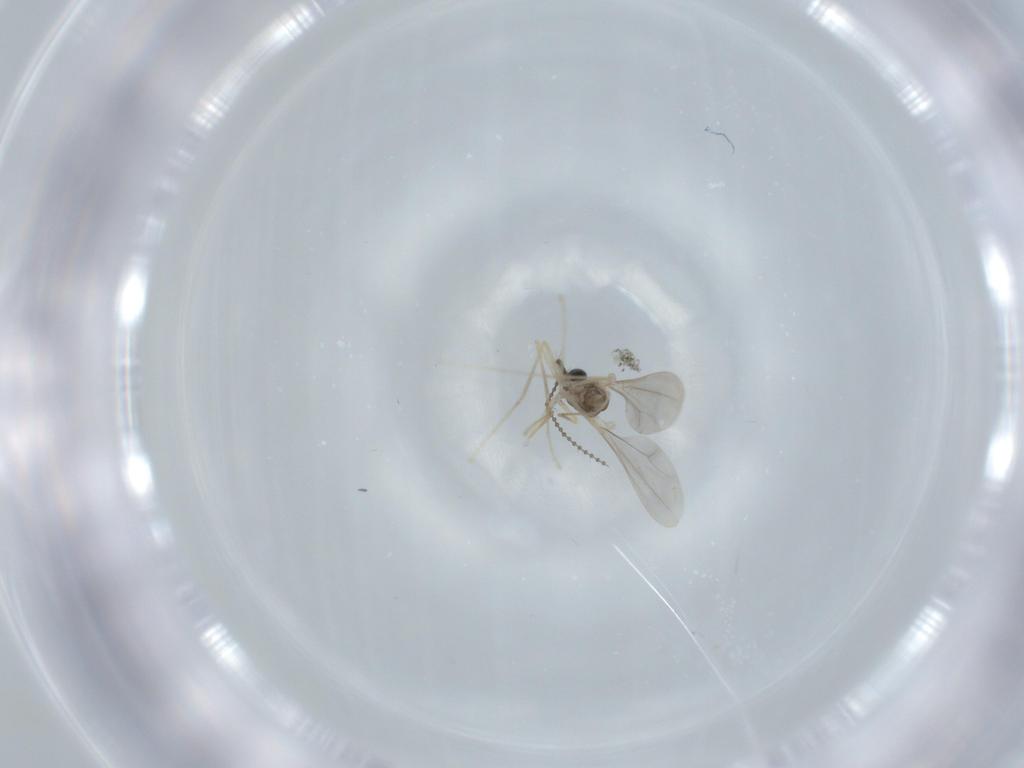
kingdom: Animalia
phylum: Arthropoda
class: Insecta
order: Diptera
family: Cecidomyiidae
